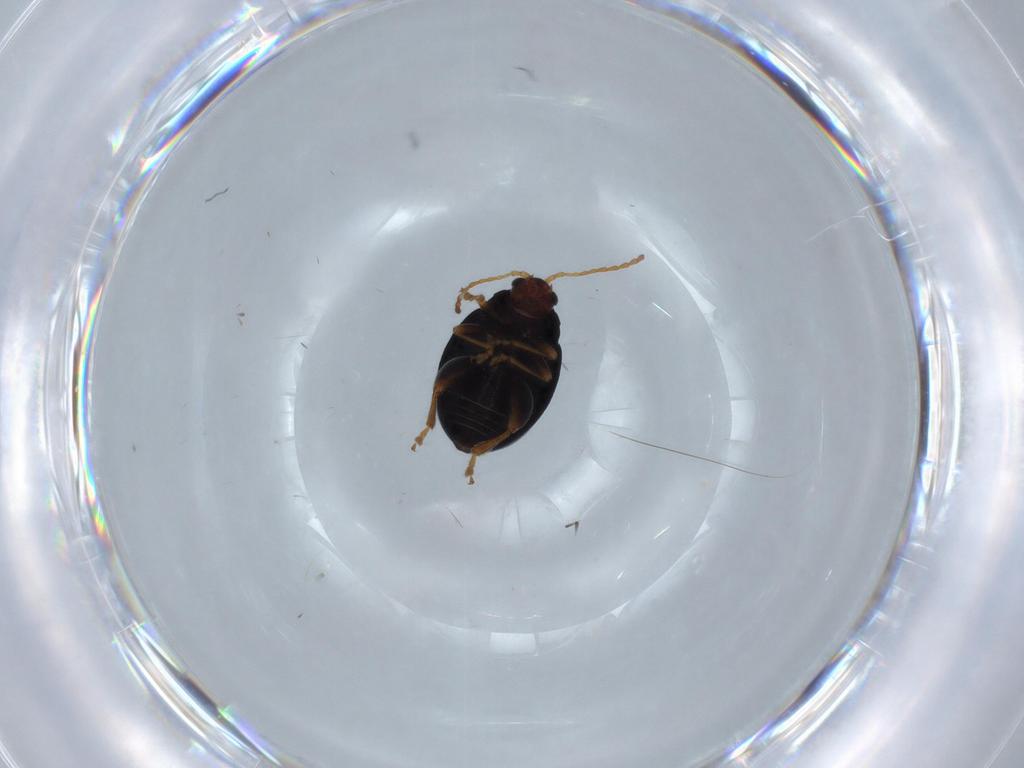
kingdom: Animalia
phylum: Arthropoda
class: Insecta
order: Coleoptera
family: Chrysomelidae
